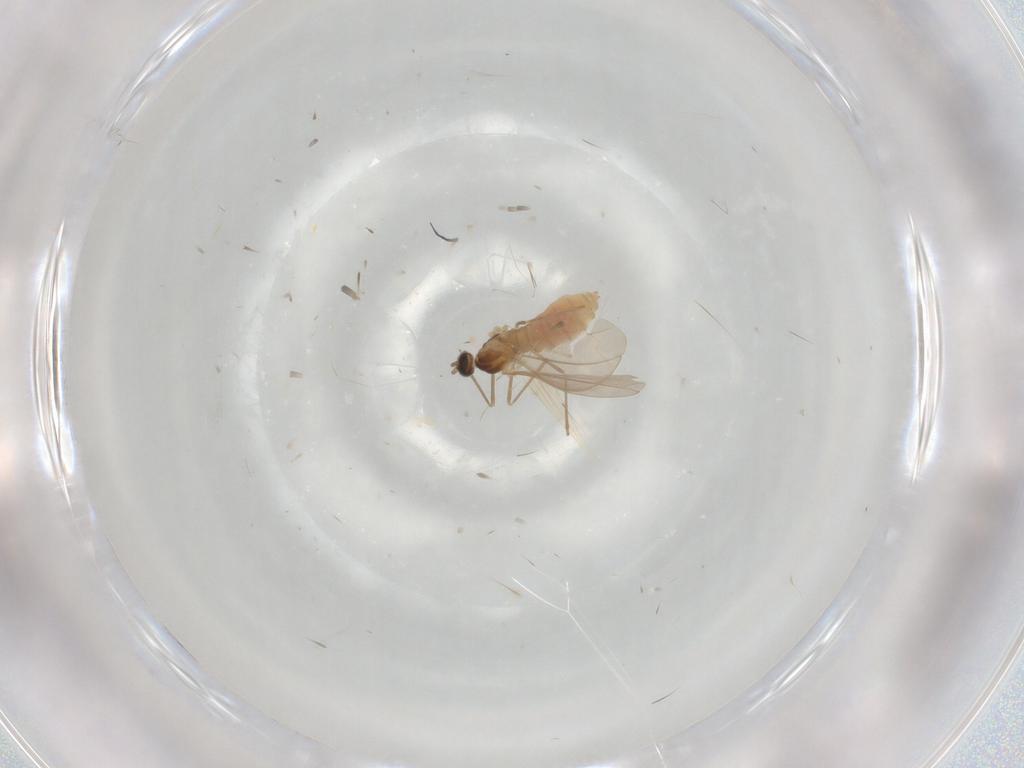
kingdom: Animalia
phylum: Arthropoda
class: Insecta
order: Diptera
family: Cecidomyiidae
